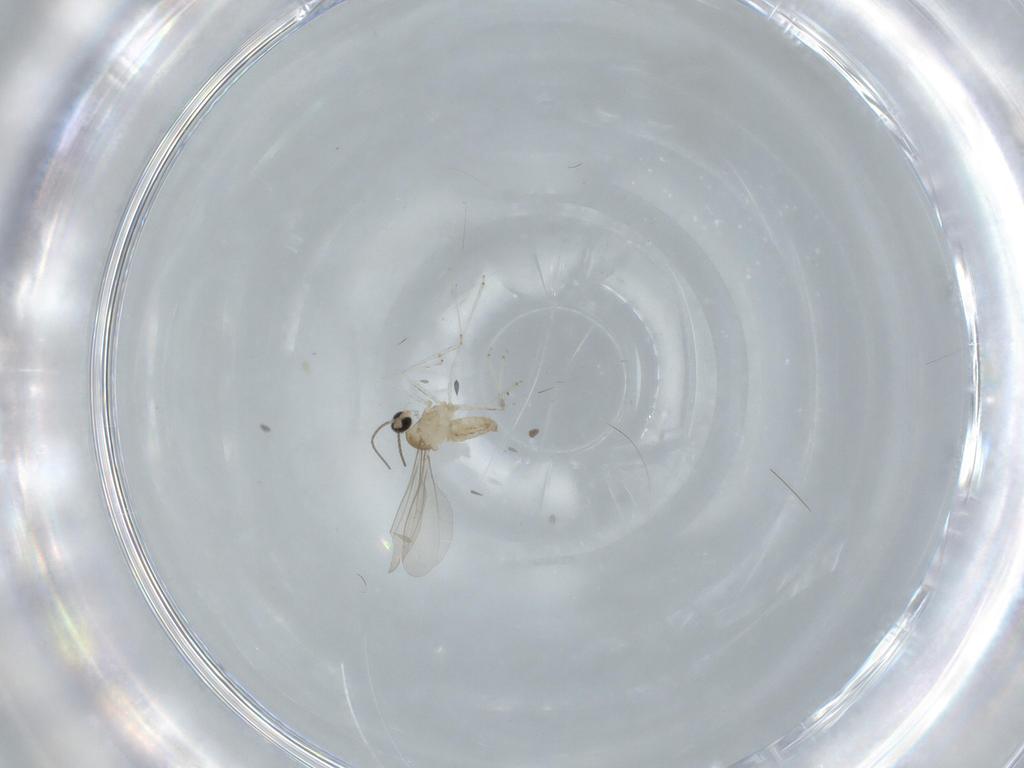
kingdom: Animalia
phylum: Arthropoda
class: Insecta
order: Diptera
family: Cecidomyiidae
